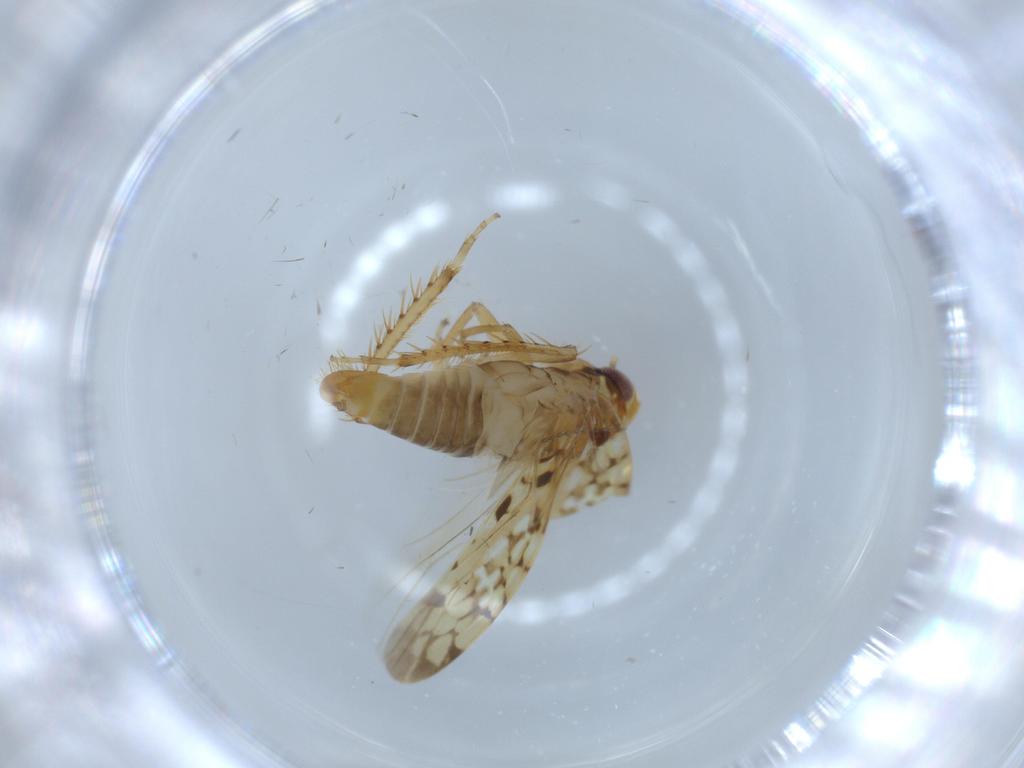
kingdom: Animalia
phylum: Arthropoda
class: Insecta
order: Hemiptera
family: Cicadellidae
